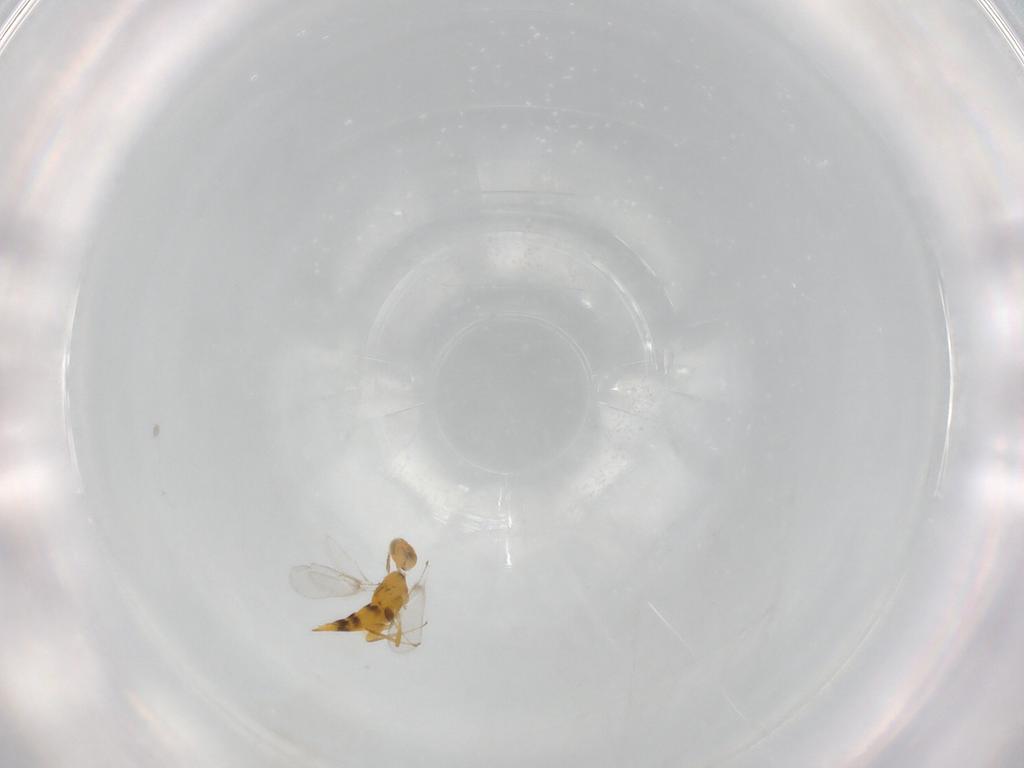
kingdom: Animalia
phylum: Arthropoda
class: Insecta
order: Hymenoptera
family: Aphelinidae
